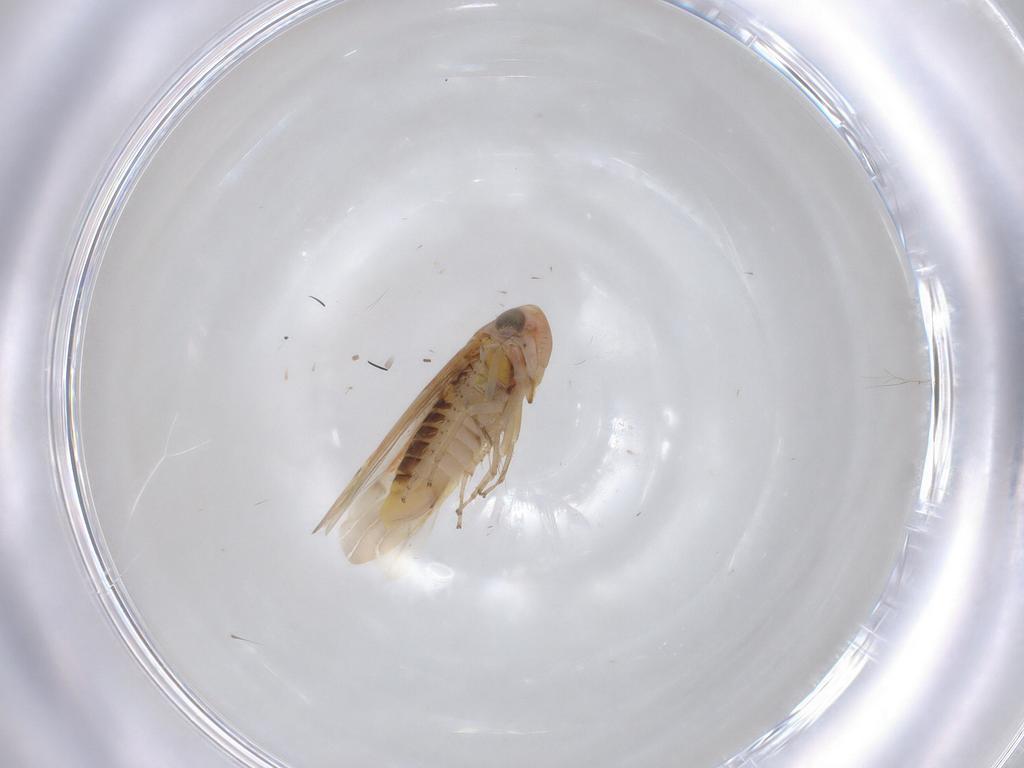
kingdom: Animalia
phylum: Arthropoda
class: Insecta
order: Hemiptera
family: Cicadellidae
